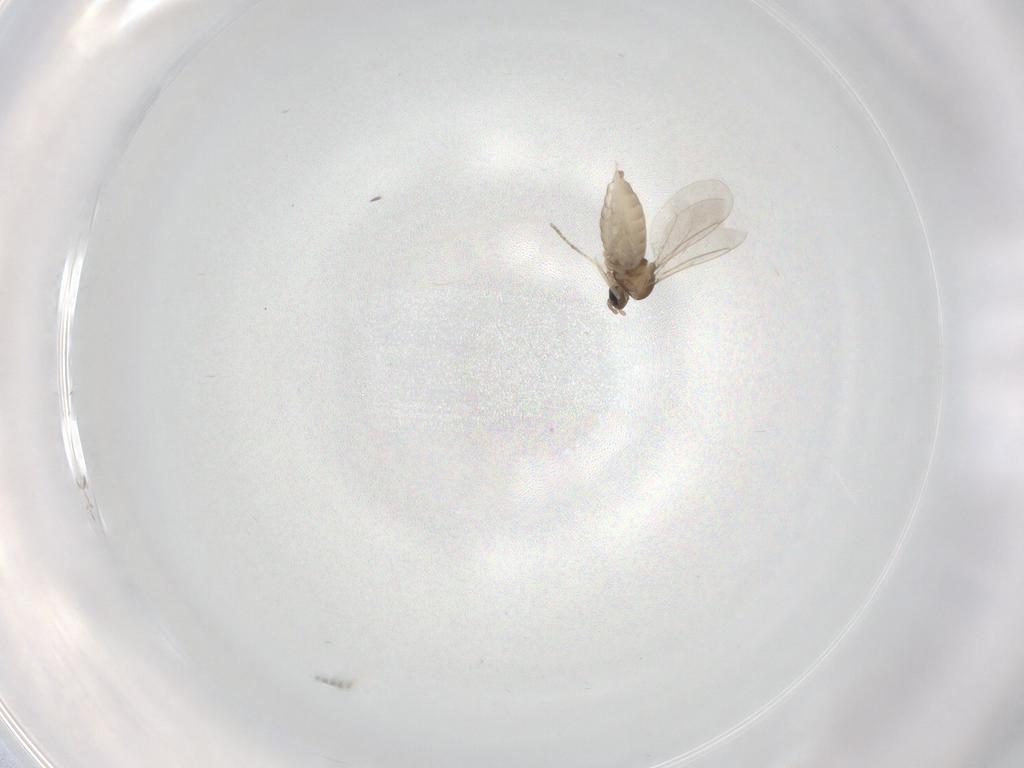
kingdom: Animalia
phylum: Arthropoda
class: Insecta
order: Diptera
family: Cecidomyiidae
